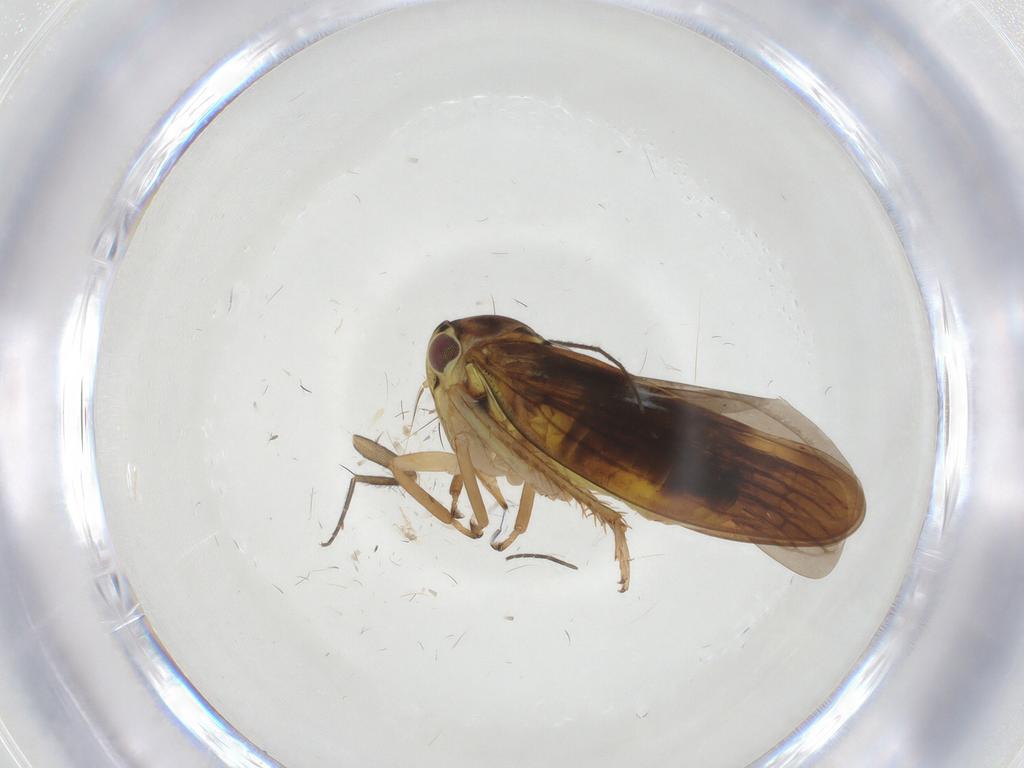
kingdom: Animalia
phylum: Arthropoda
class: Insecta
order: Hemiptera
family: Cicadellidae
